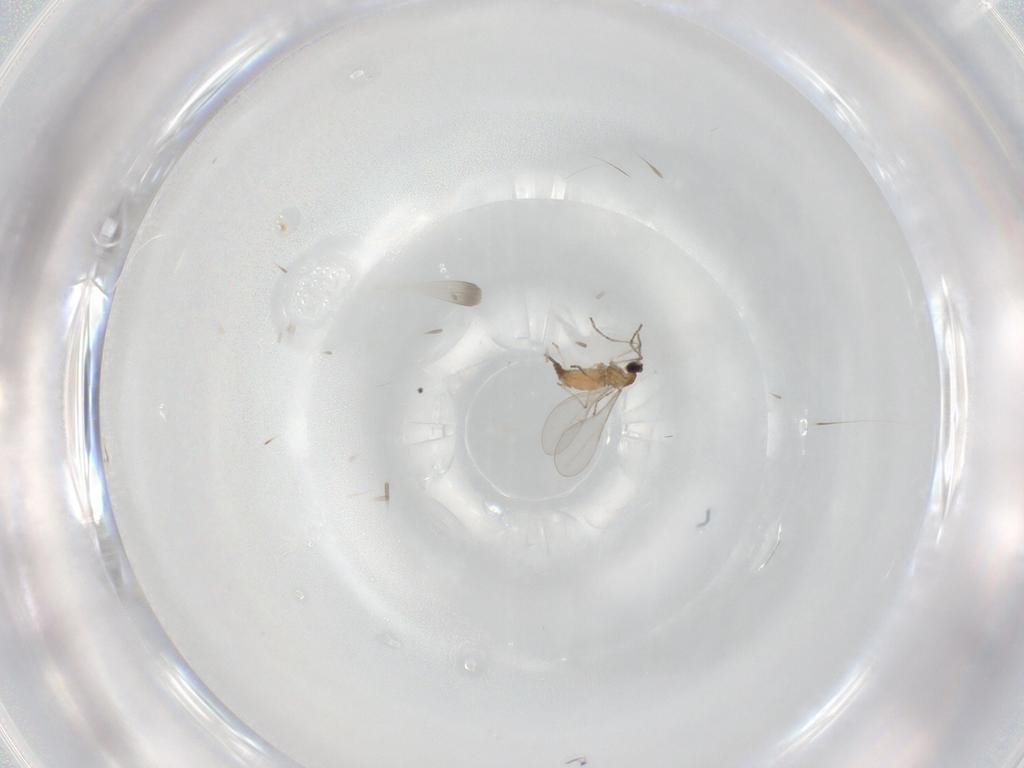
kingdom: Animalia
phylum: Arthropoda
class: Insecta
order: Diptera
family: Cecidomyiidae
